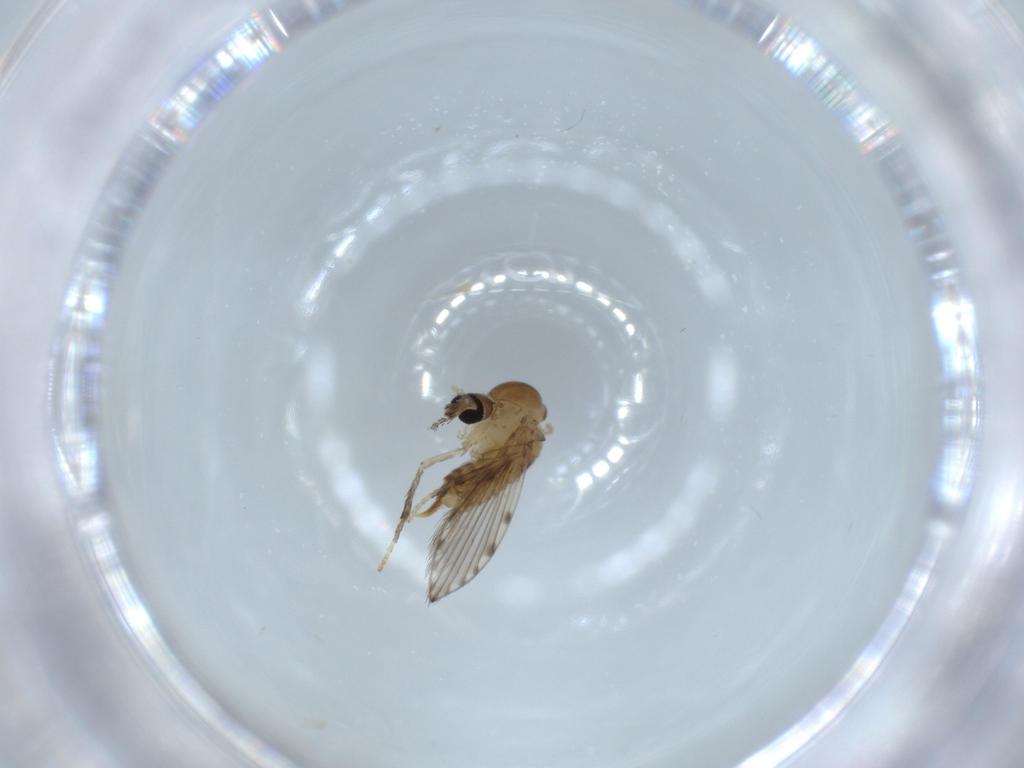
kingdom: Animalia
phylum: Arthropoda
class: Insecta
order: Diptera
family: Psychodidae
